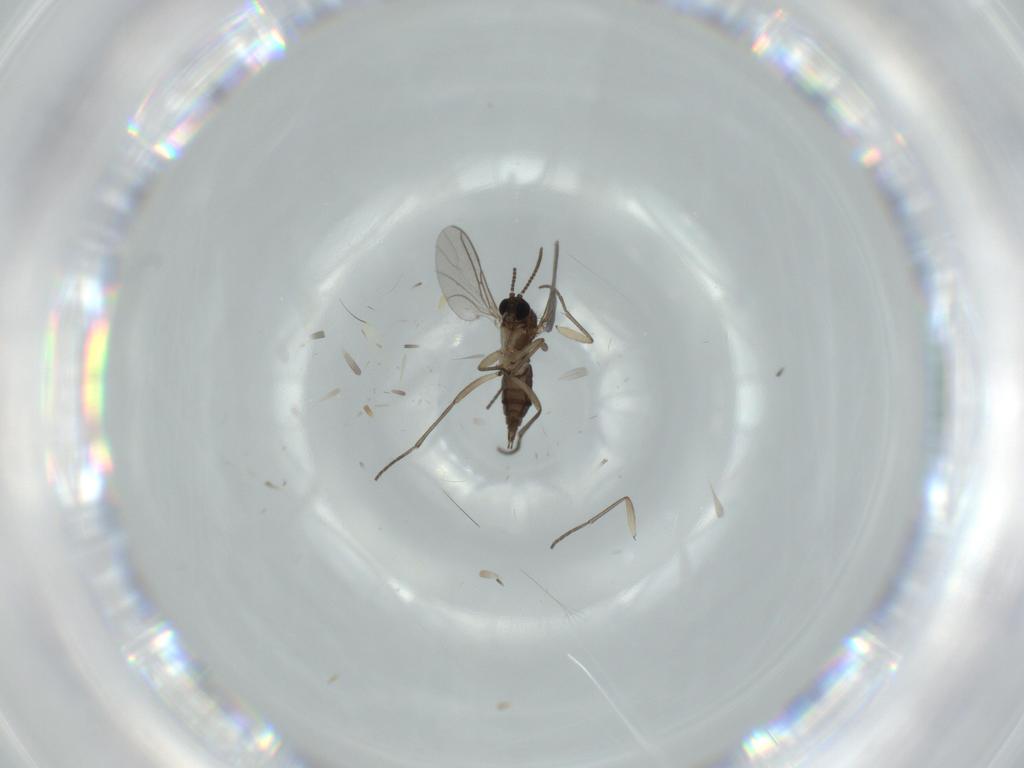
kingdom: Animalia
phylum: Arthropoda
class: Insecta
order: Diptera
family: Sciaridae
